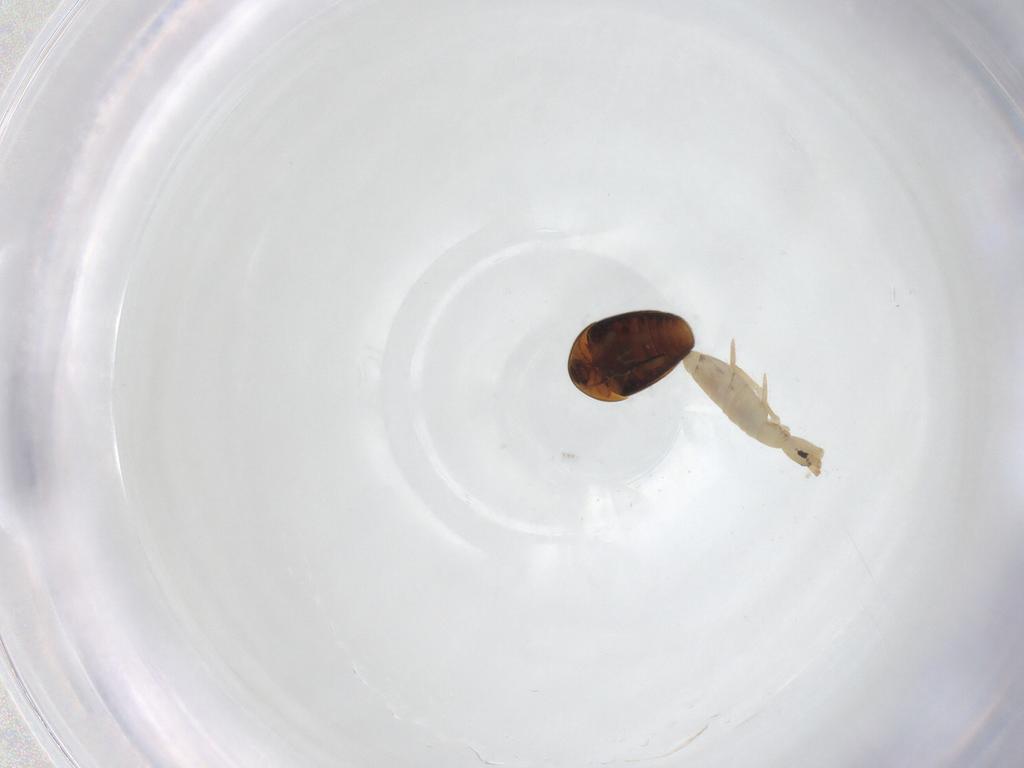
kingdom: Animalia
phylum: Arthropoda
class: Insecta
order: Coleoptera
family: Corylophidae
